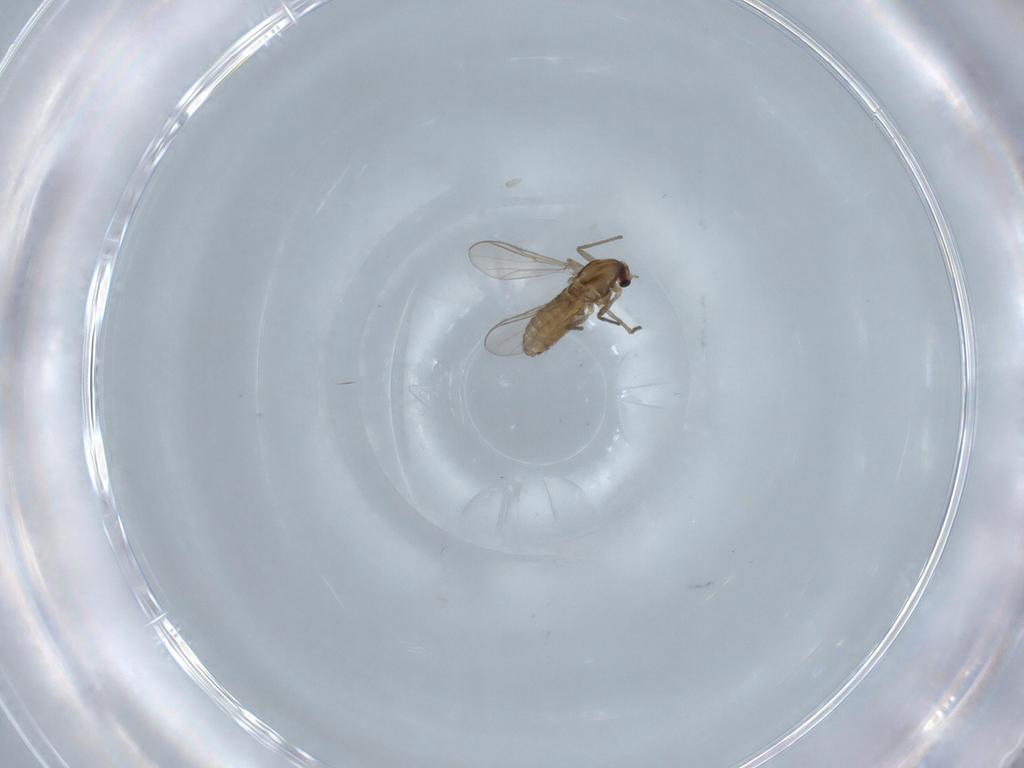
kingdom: Animalia
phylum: Arthropoda
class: Insecta
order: Diptera
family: Chironomidae
